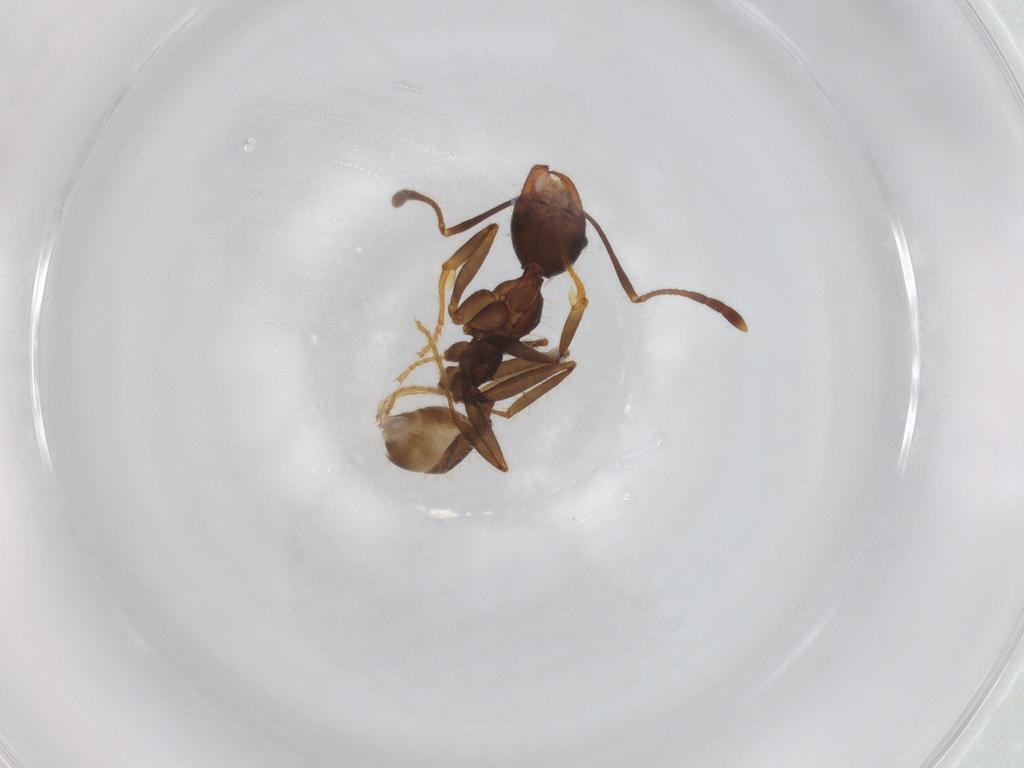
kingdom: Animalia
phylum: Arthropoda
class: Insecta
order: Hymenoptera
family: Formicidae
